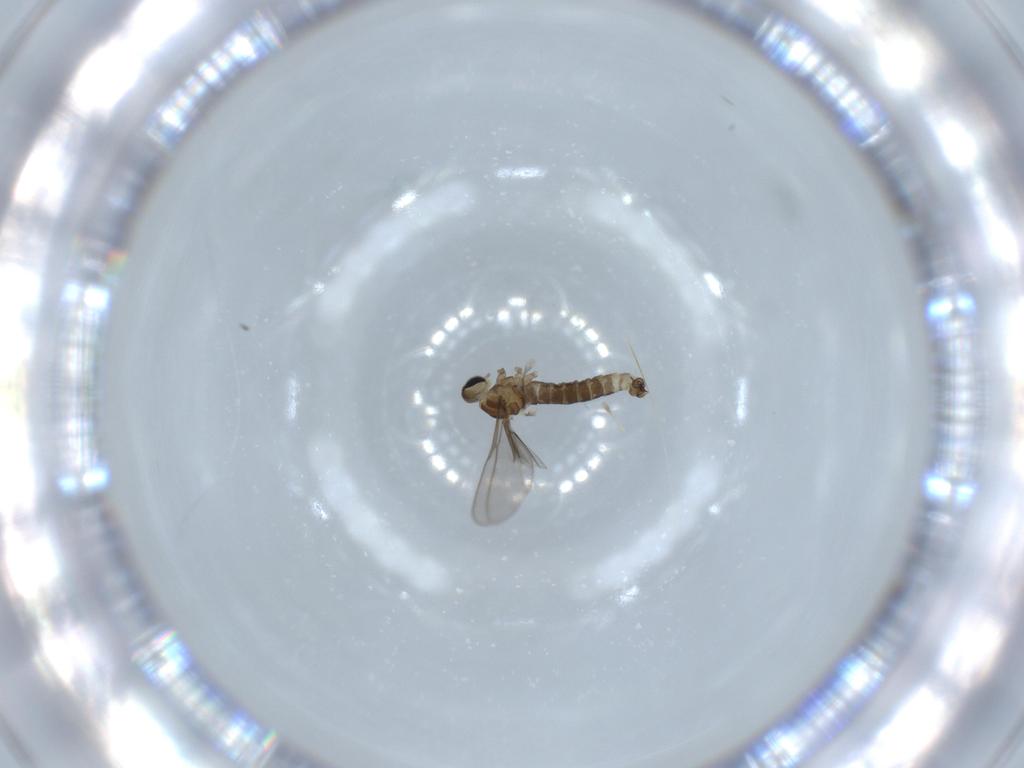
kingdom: Animalia
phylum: Arthropoda
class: Insecta
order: Diptera
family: Cecidomyiidae
